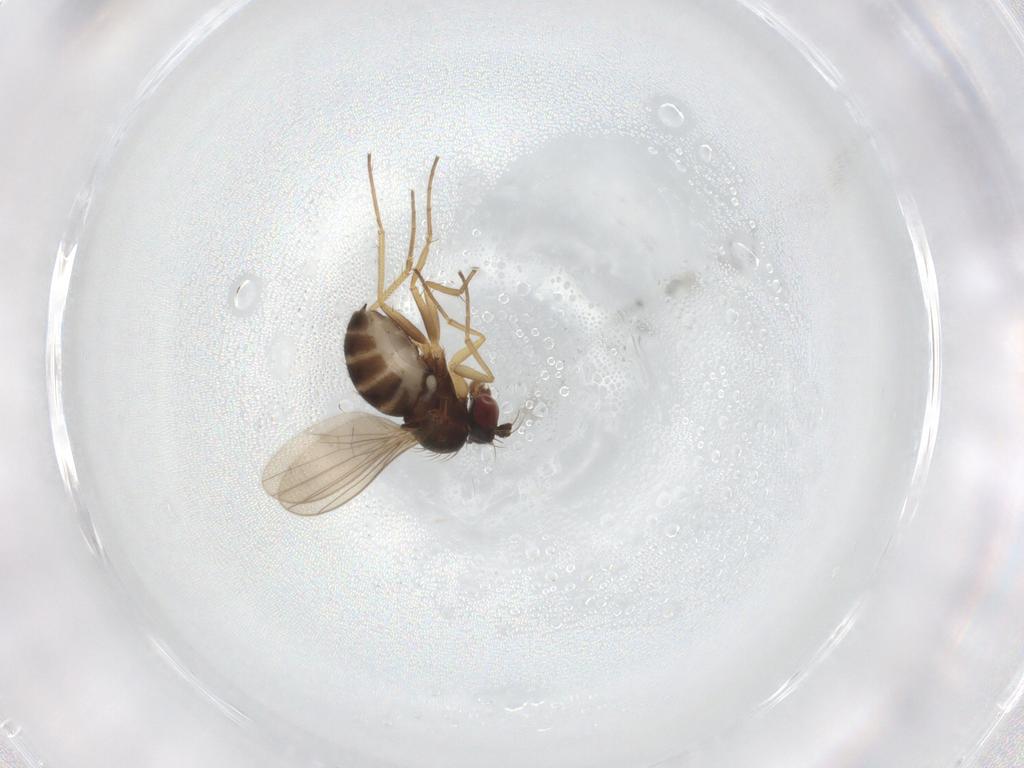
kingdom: Animalia
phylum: Arthropoda
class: Insecta
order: Diptera
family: Dolichopodidae
